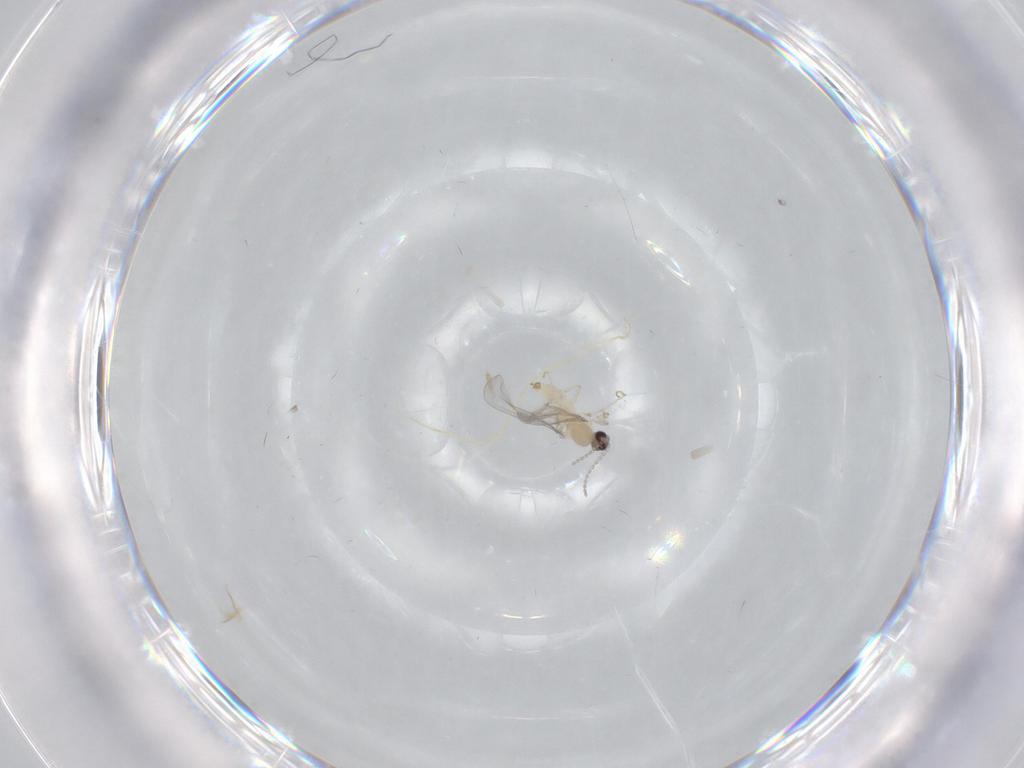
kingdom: Animalia
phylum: Arthropoda
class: Insecta
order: Diptera
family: Cecidomyiidae
